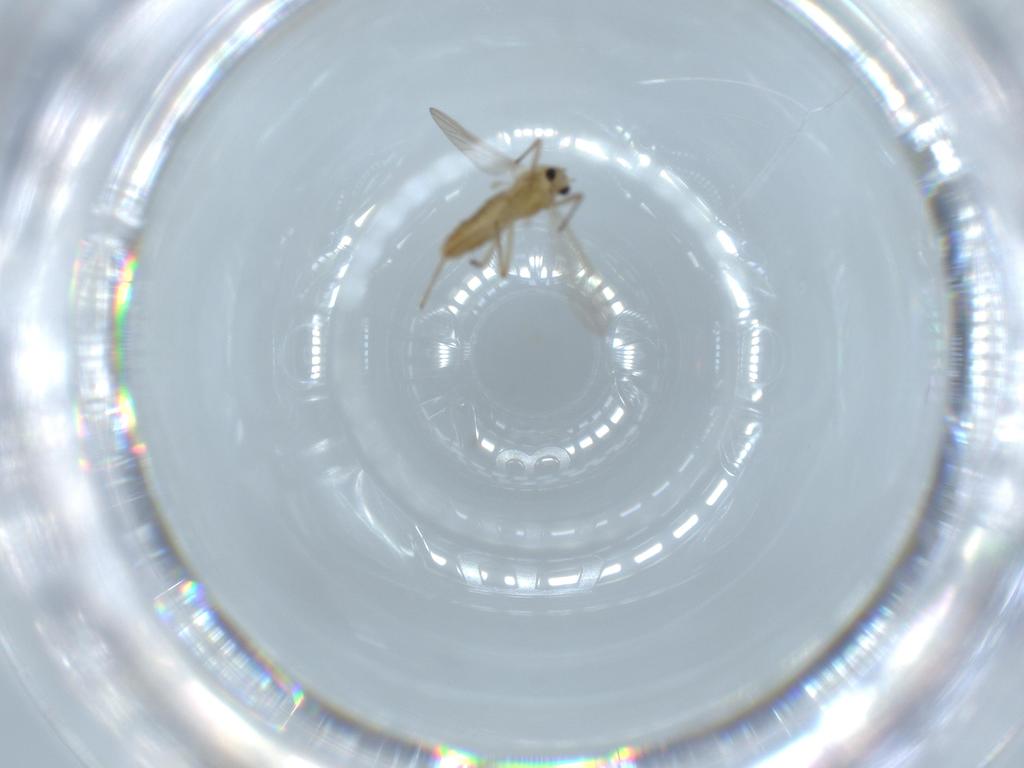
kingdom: Animalia
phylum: Arthropoda
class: Insecta
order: Diptera
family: Chironomidae
